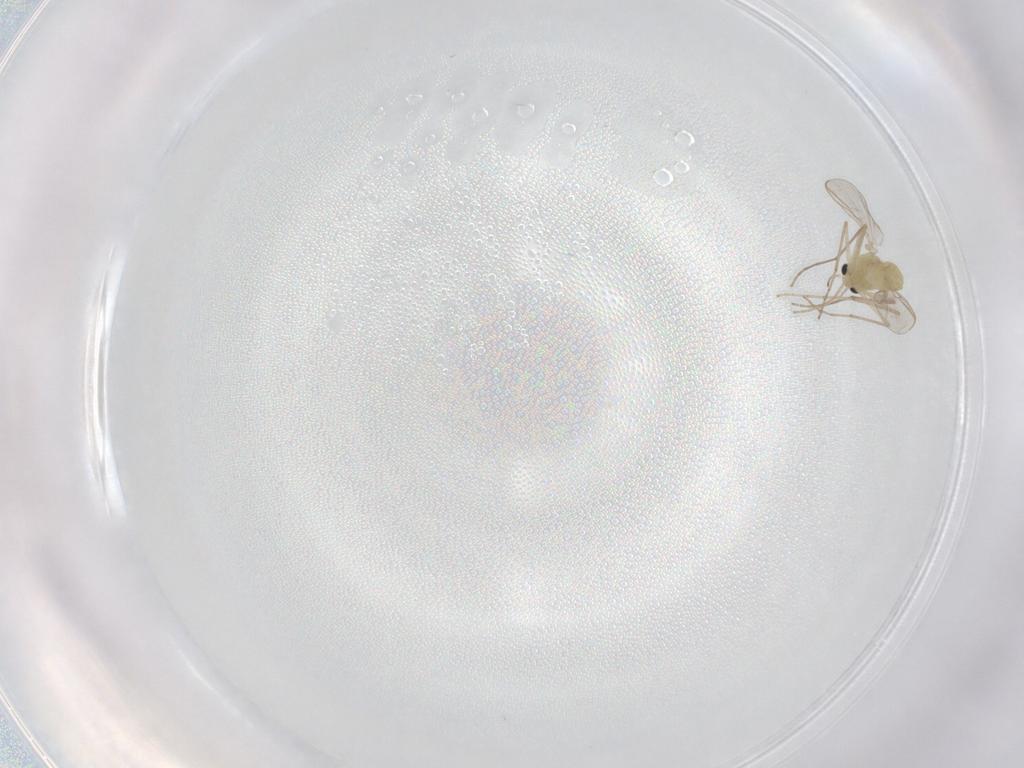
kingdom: Animalia
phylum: Arthropoda
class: Insecta
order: Diptera
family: Chironomidae
